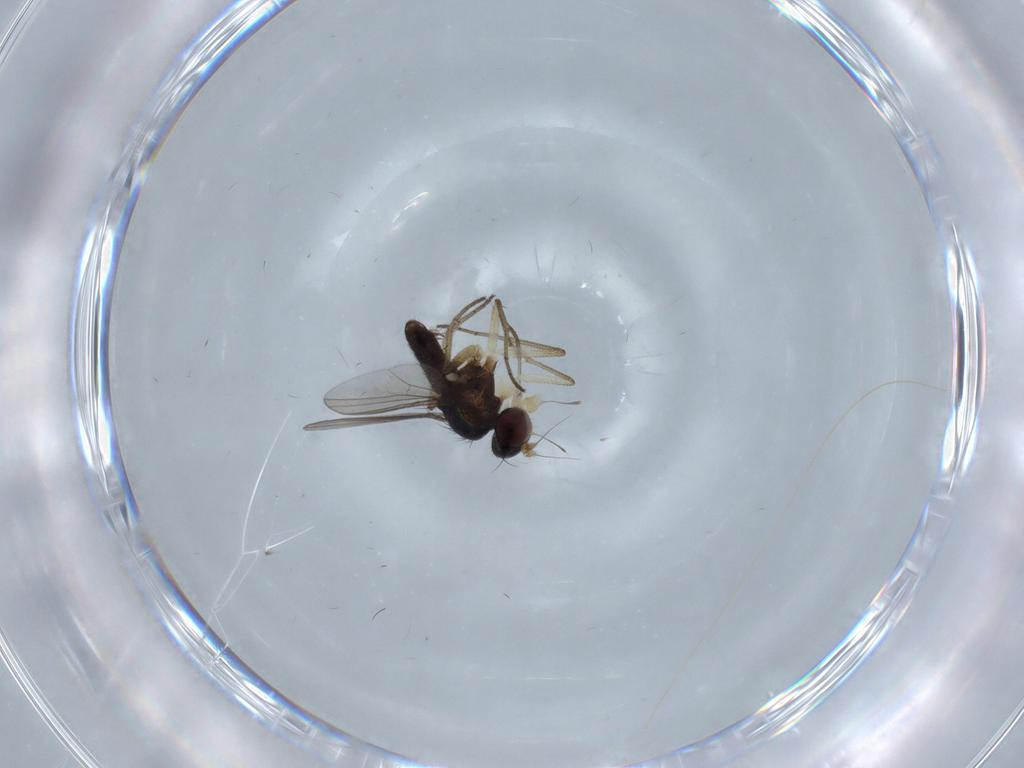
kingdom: Animalia
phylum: Arthropoda
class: Insecta
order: Diptera
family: Dolichopodidae
